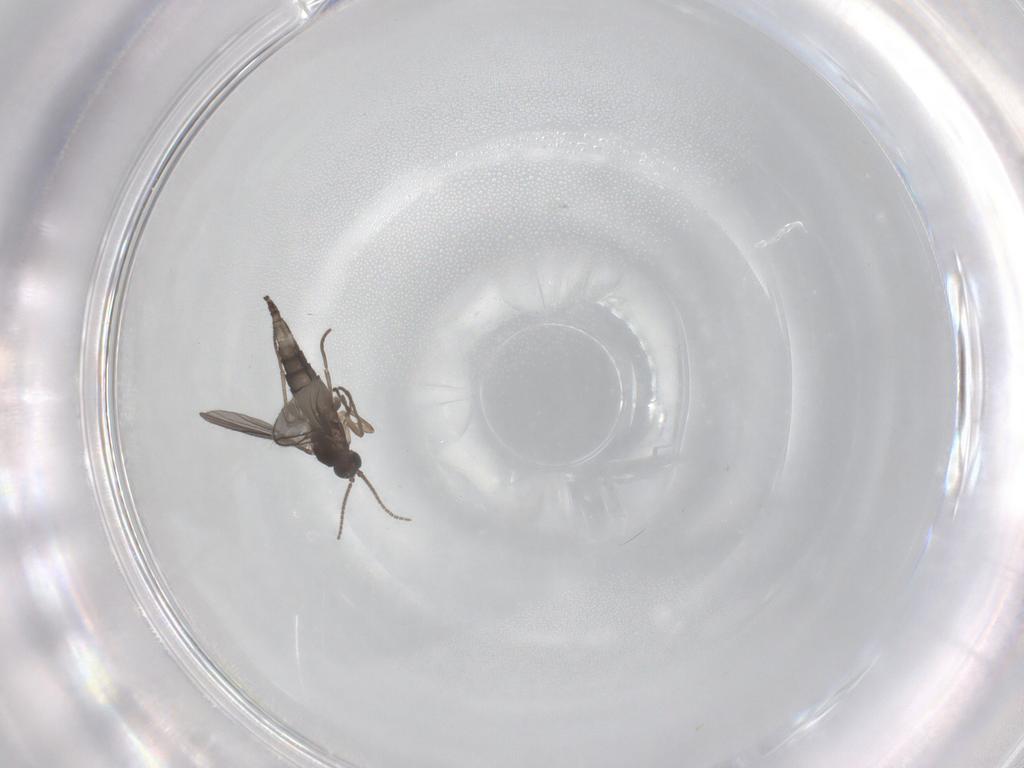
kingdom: Animalia
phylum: Arthropoda
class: Insecta
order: Diptera
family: Sciaridae
